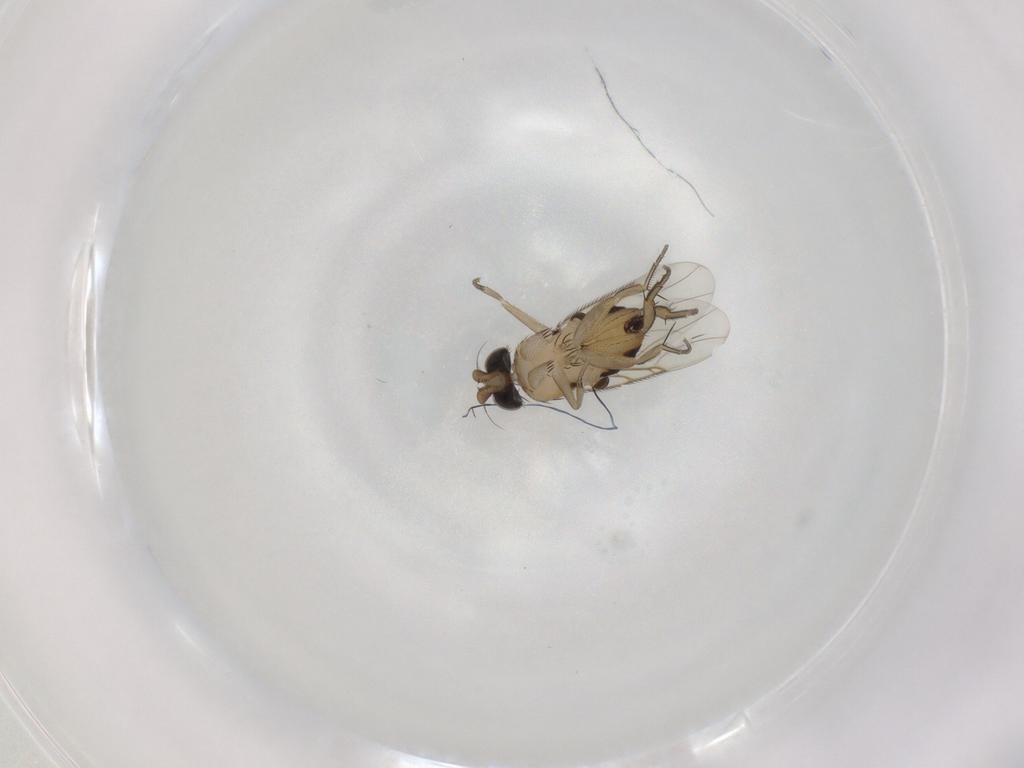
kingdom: Animalia
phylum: Arthropoda
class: Insecta
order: Diptera
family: Phoridae
